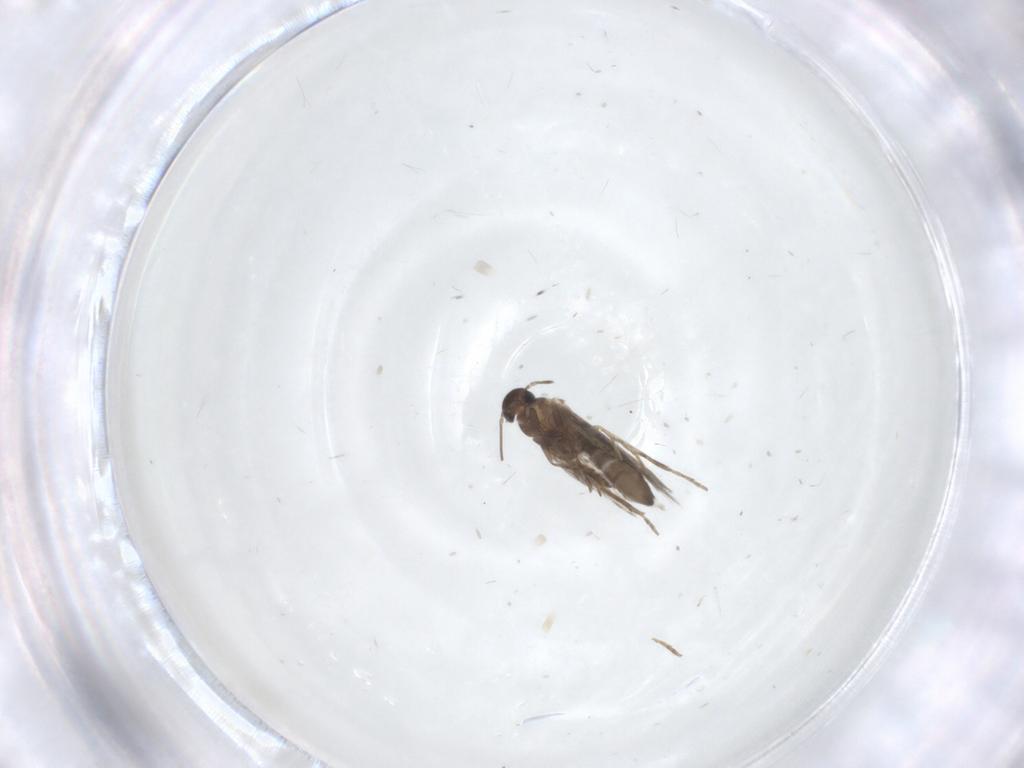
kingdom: Animalia
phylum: Arthropoda
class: Insecta
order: Lepidoptera
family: Heliozelidae
